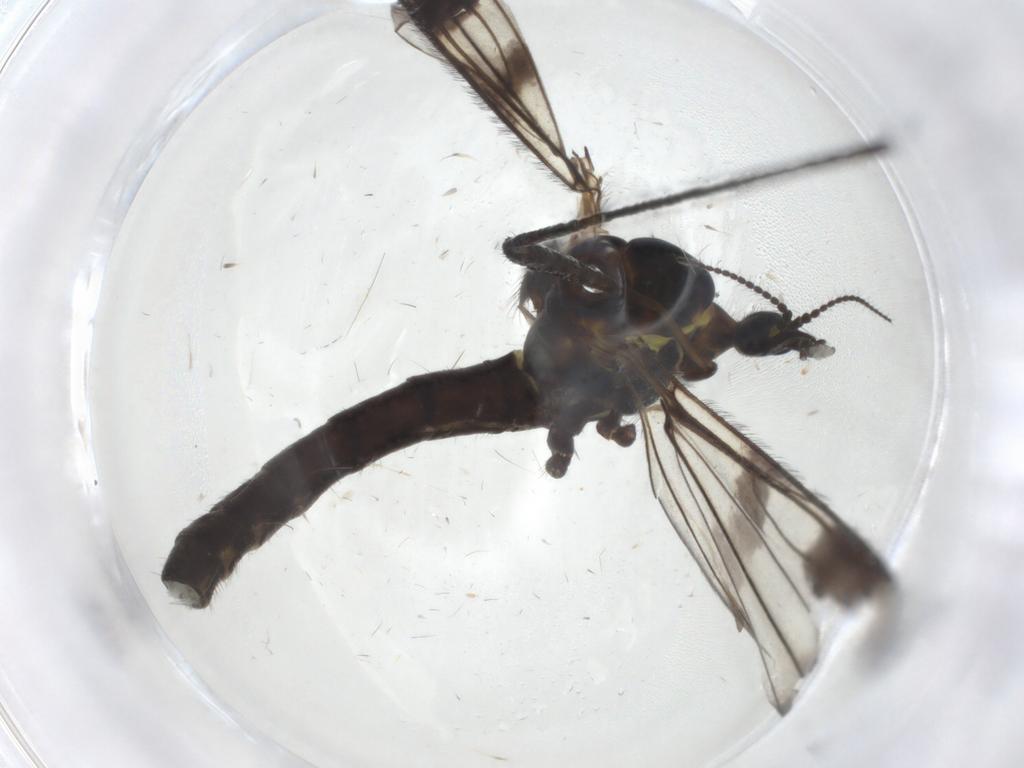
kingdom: Animalia
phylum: Arthropoda
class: Insecta
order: Diptera
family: Limoniidae
